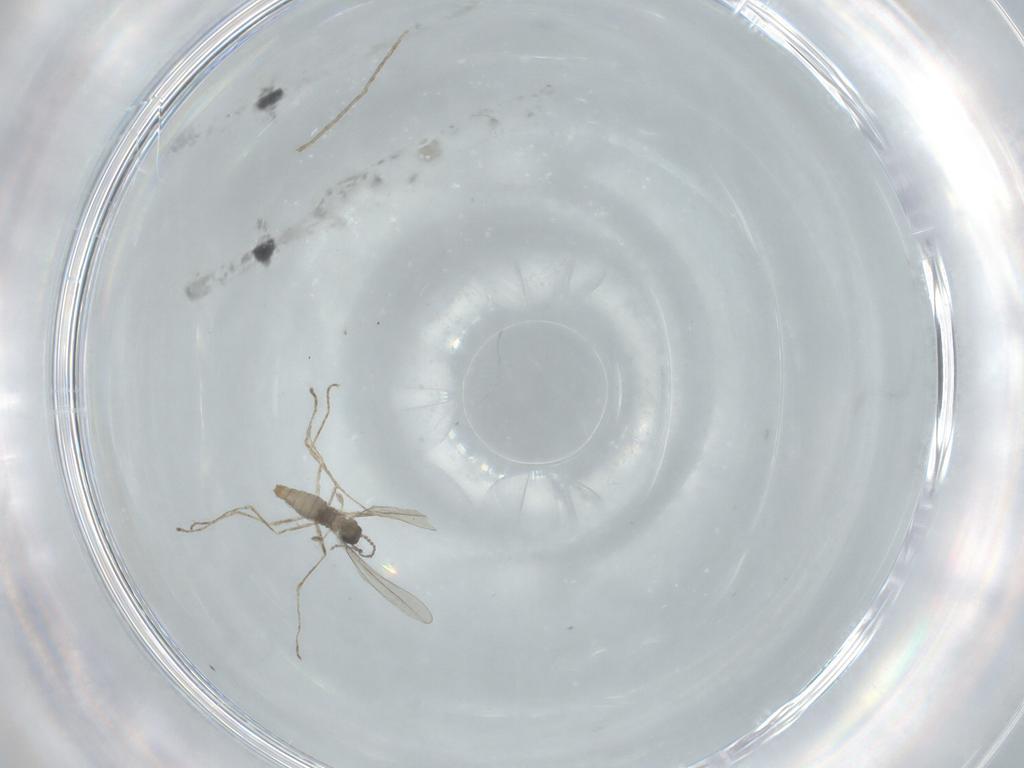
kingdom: Animalia
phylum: Arthropoda
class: Insecta
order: Diptera
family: Cecidomyiidae
